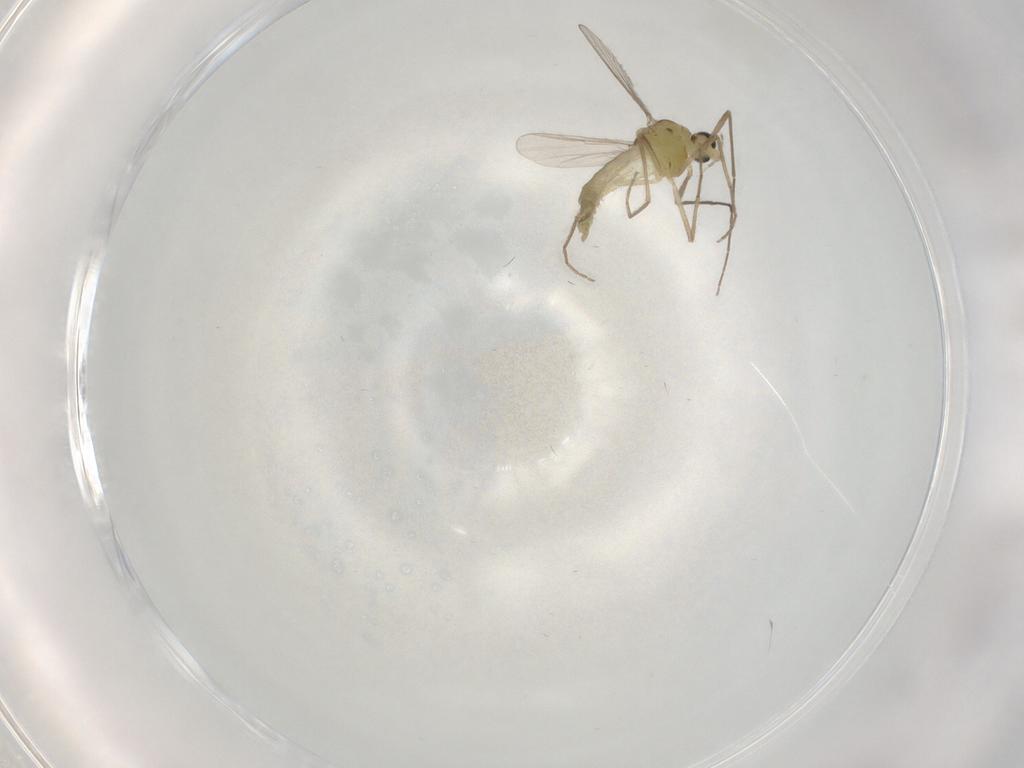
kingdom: Animalia
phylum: Arthropoda
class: Insecta
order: Diptera
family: Chironomidae
